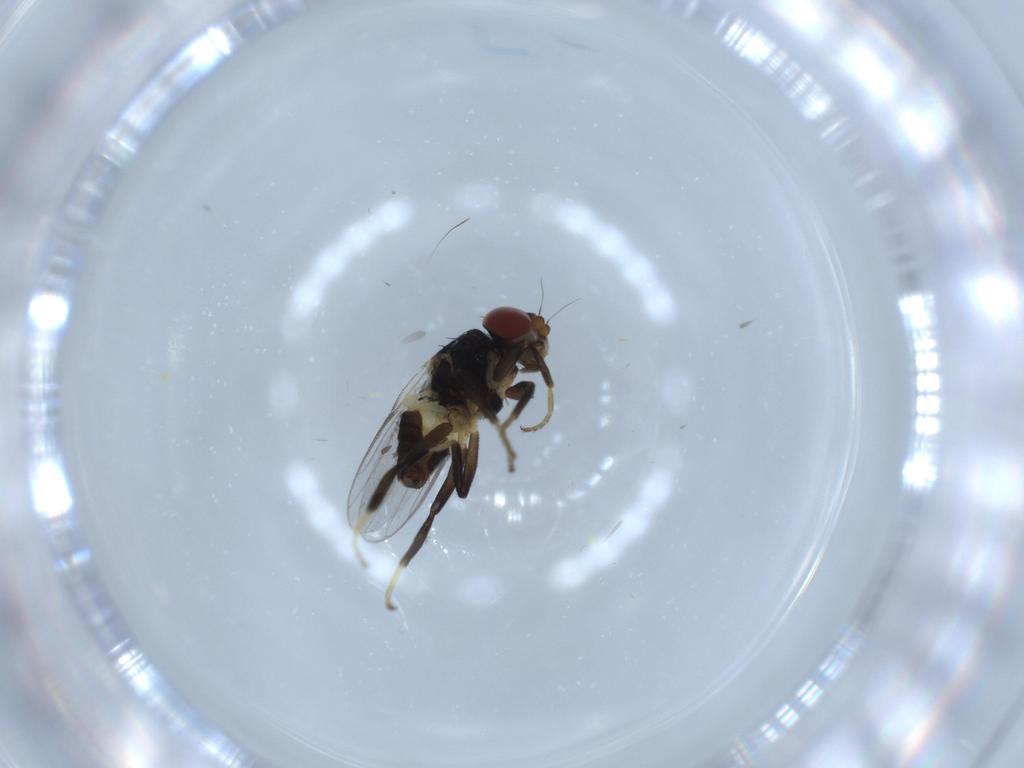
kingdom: Animalia
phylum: Arthropoda
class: Insecta
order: Diptera
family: Chloropidae
